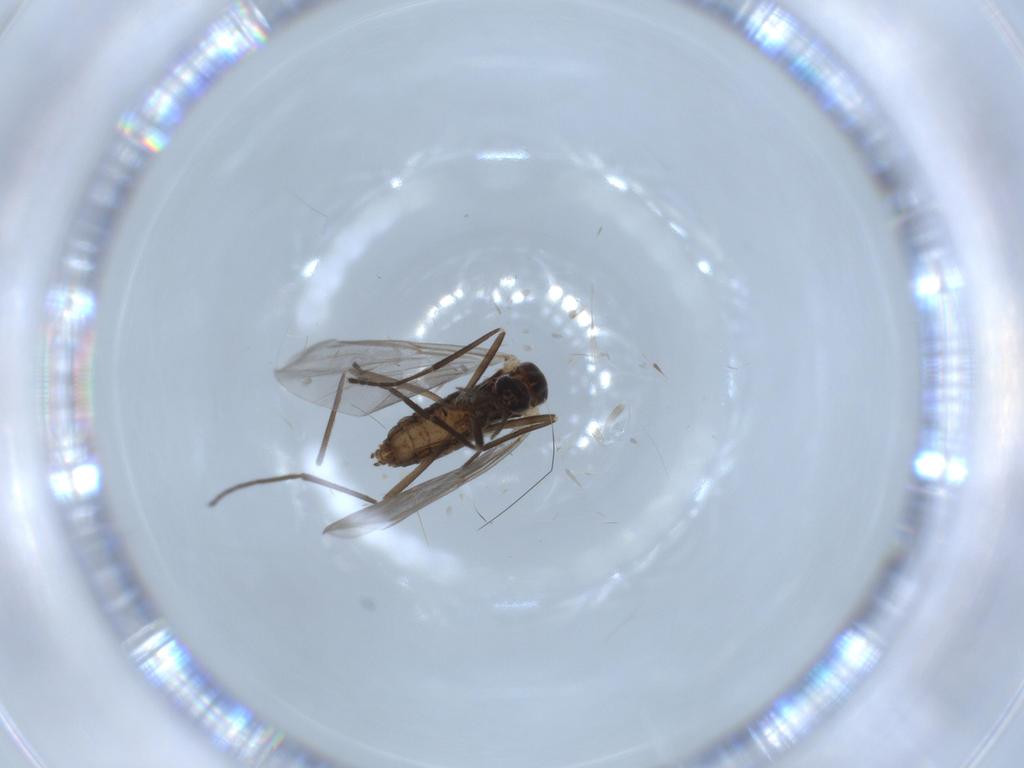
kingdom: Animalia
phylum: Arthropoda
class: Insecta
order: Diptera
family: Cecidomyiidae
